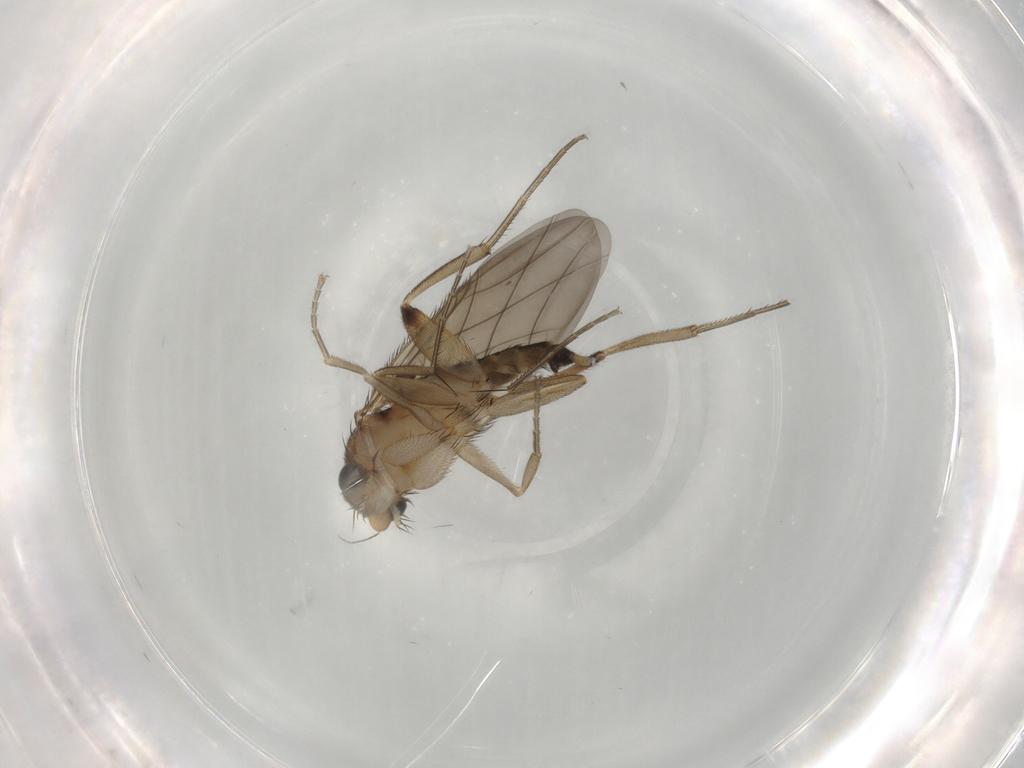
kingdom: Animalia
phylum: Arthropoda
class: Insecta
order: Diptera
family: Phoridae
